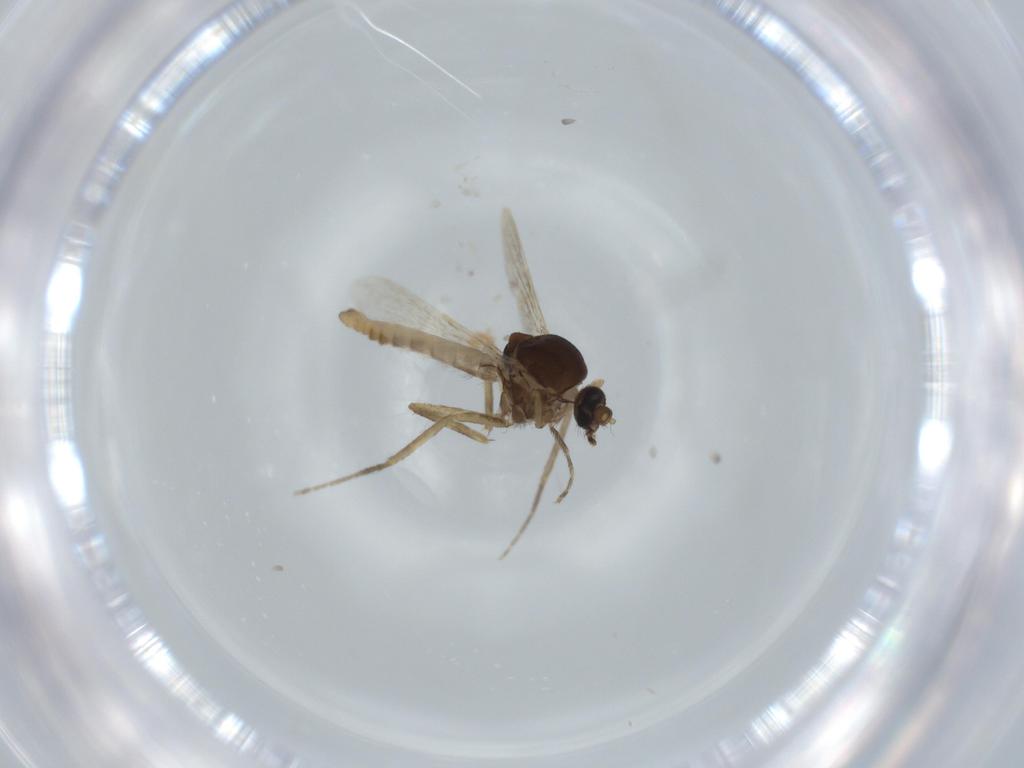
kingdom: Animalia
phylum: Arthropoda
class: Insecta
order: Diptera
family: Ceratopogonidae
